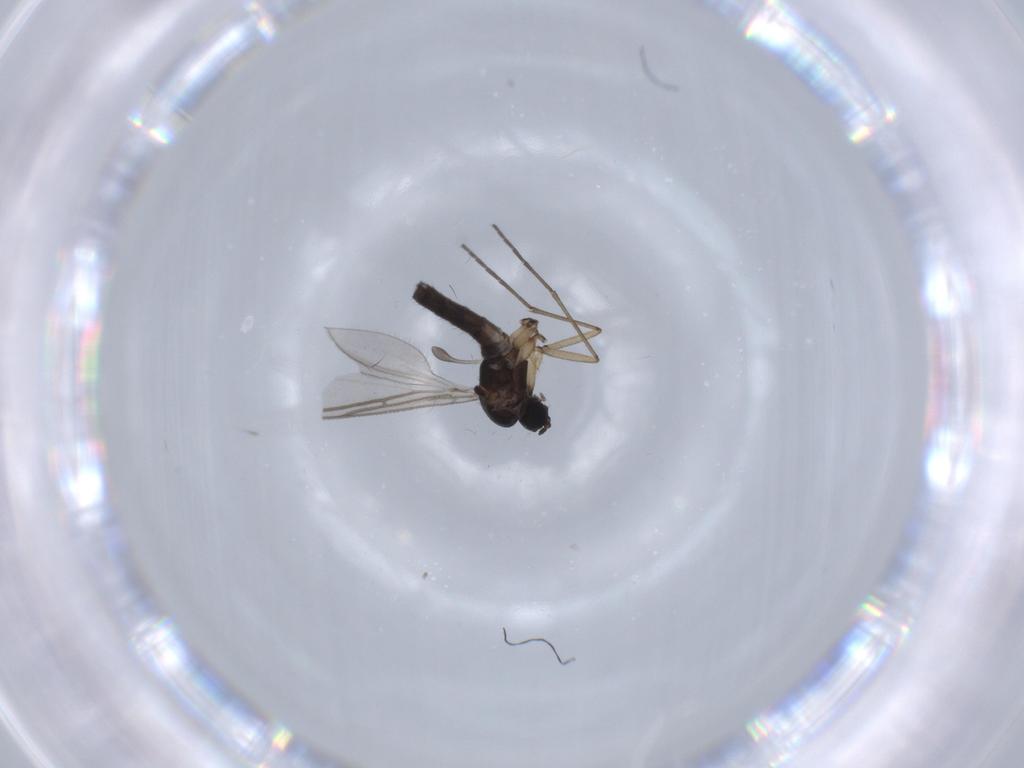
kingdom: Animalia
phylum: Arthropoda
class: Insecta
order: Diptera
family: Sciaridae
